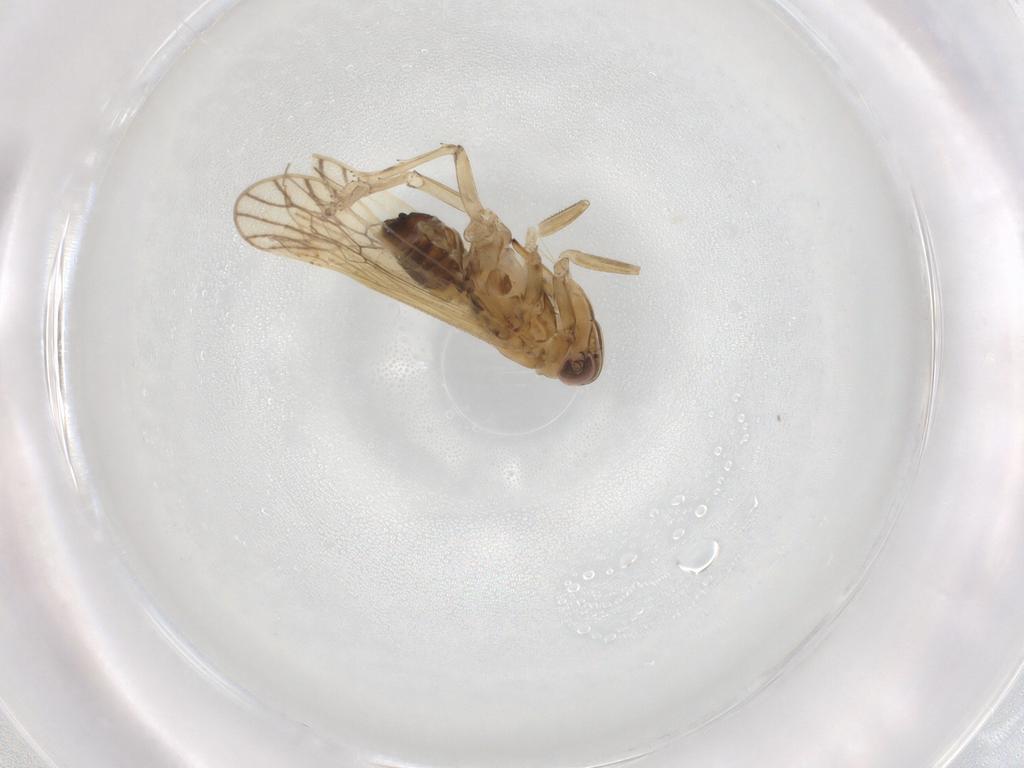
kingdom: Animalia
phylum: Arthropoda
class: Insecta
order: Hemiptera
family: Delphacidae
